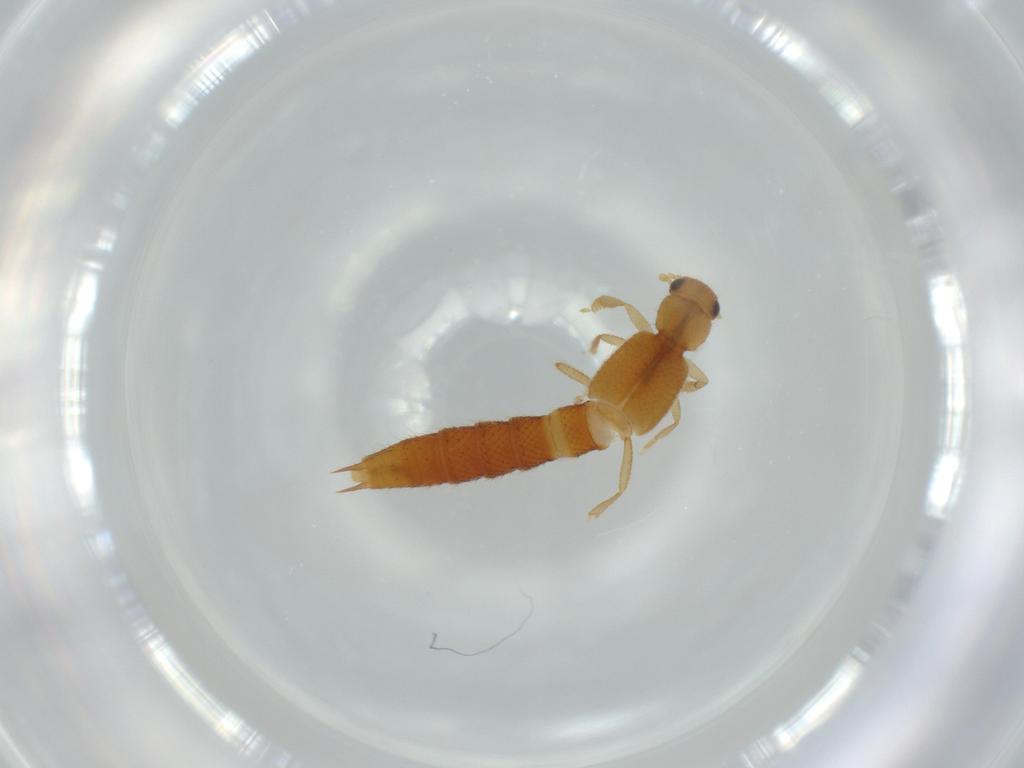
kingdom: Animalia
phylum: Arthropoda
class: Insecta
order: Coleoptera
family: Staphylinidae
